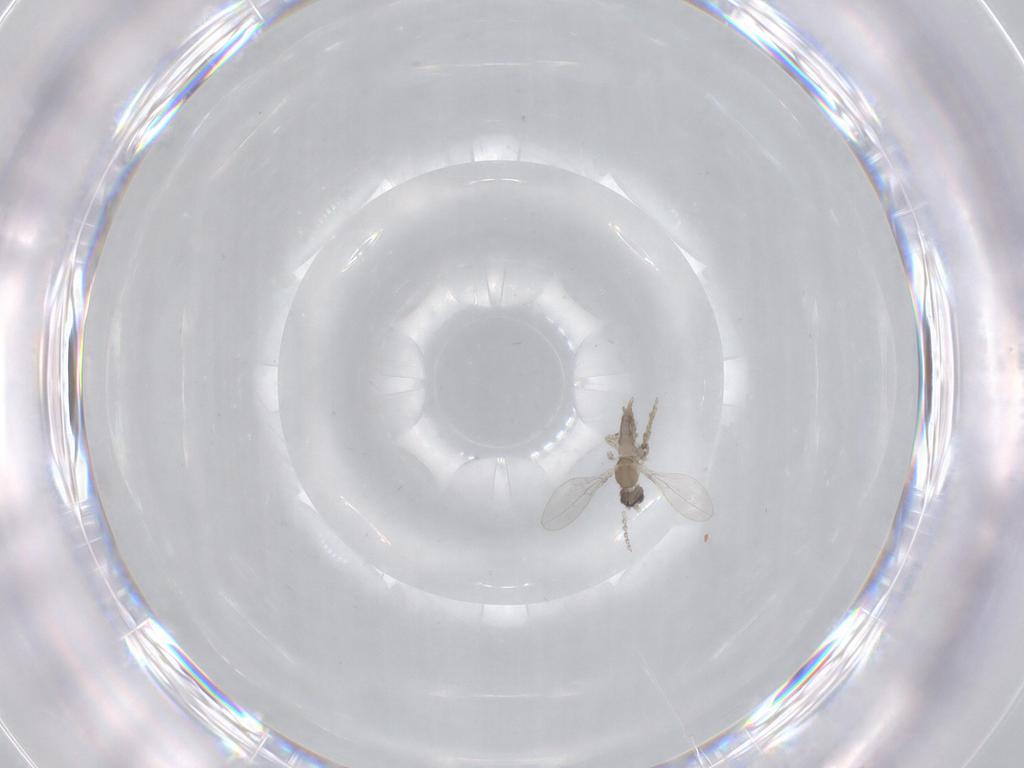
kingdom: Animalia
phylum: Arthropoda
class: Insecta
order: Diptera
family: Cecidomyiidae
